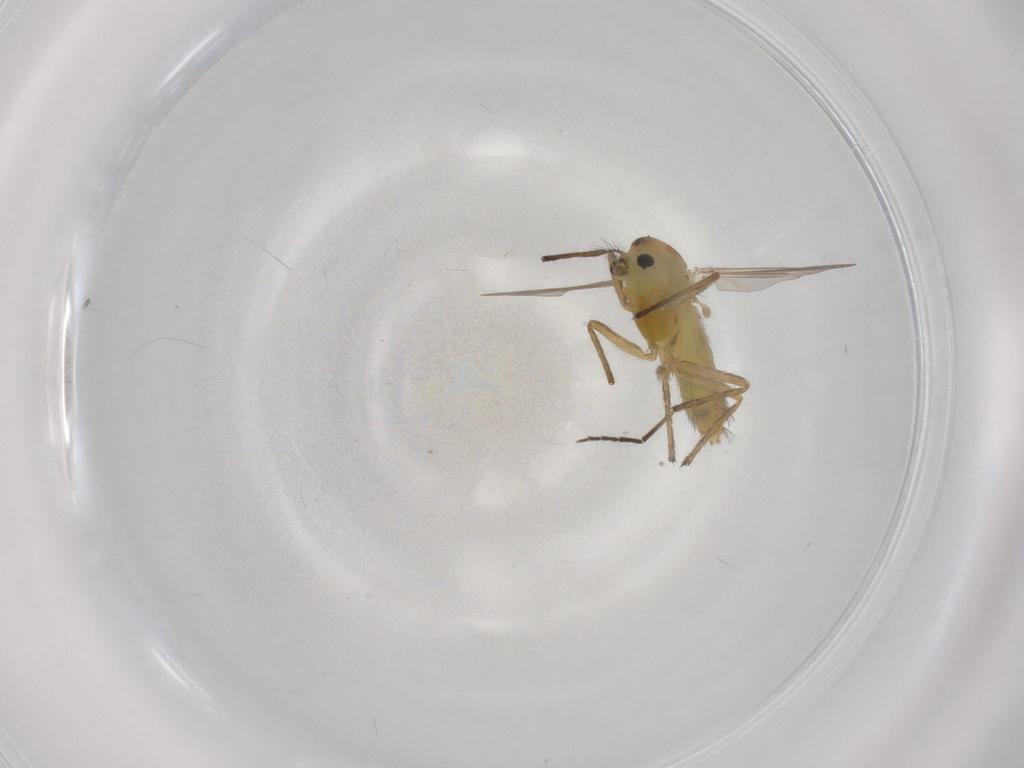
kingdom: Animalia
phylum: Arthropoda
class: Insecta
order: Diptera
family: Chironomidae
